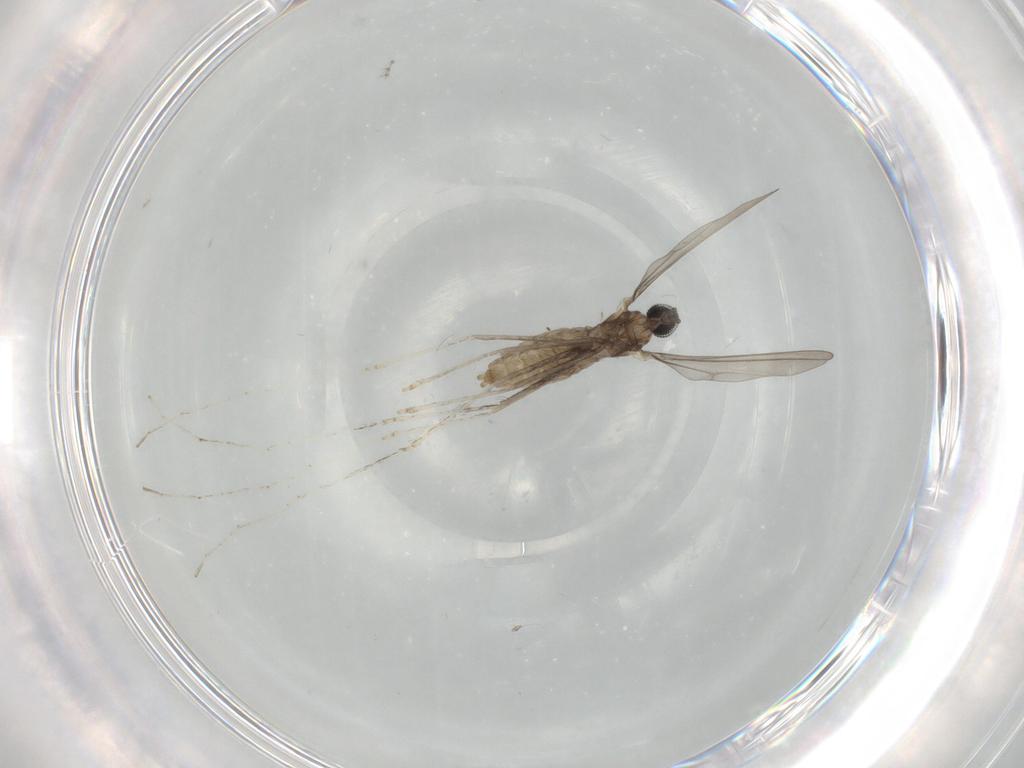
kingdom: Animalia
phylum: Arthropoda
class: Insecta
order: Diptera
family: Cecidomyiidae
